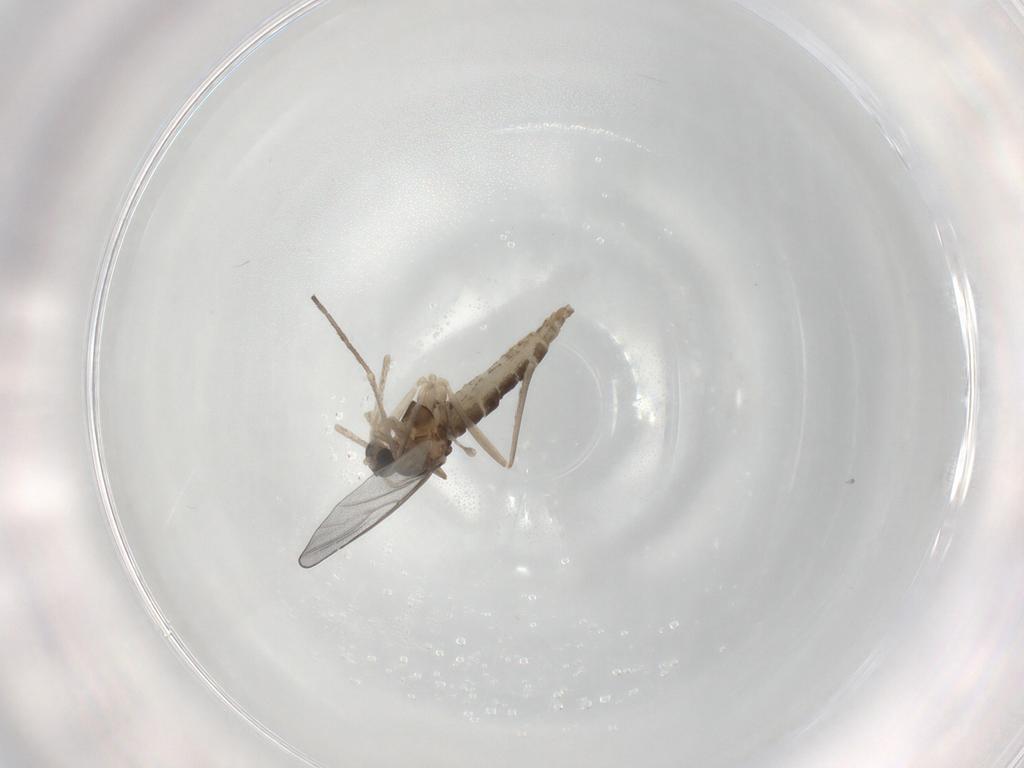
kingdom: Animalia
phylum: Arthropoda
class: Insecta
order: Diptera
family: Cecidomyiidae
